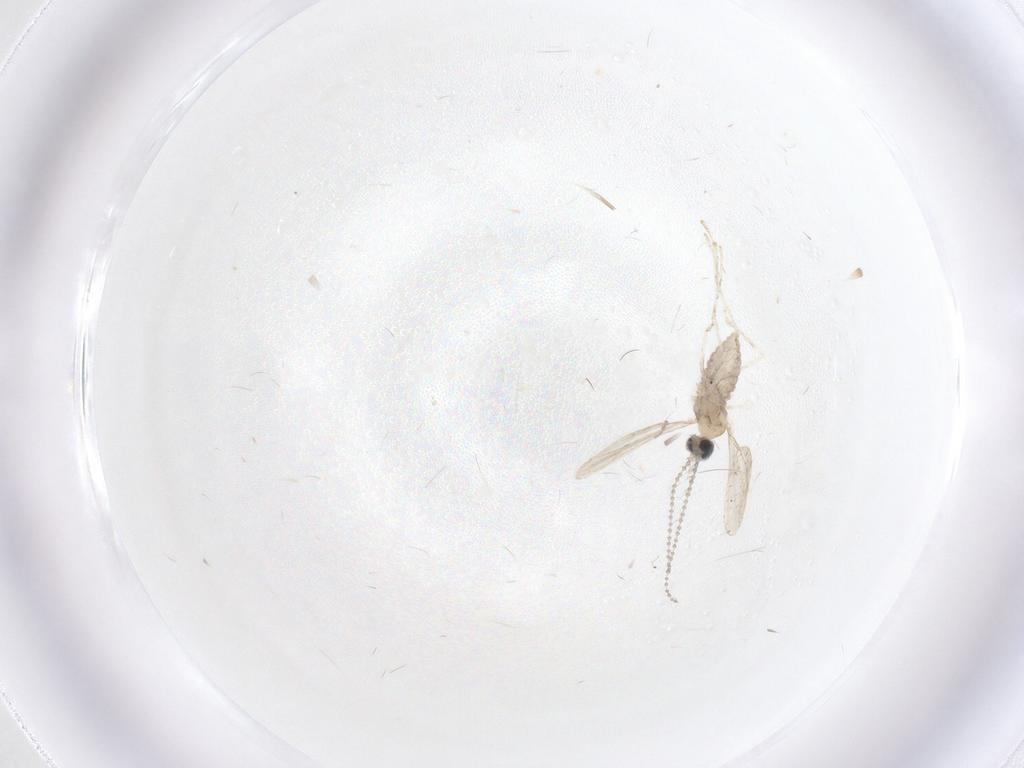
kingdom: Animalia
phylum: Arthropoda
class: Insecta
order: Diptera
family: Cecidomyiidae
